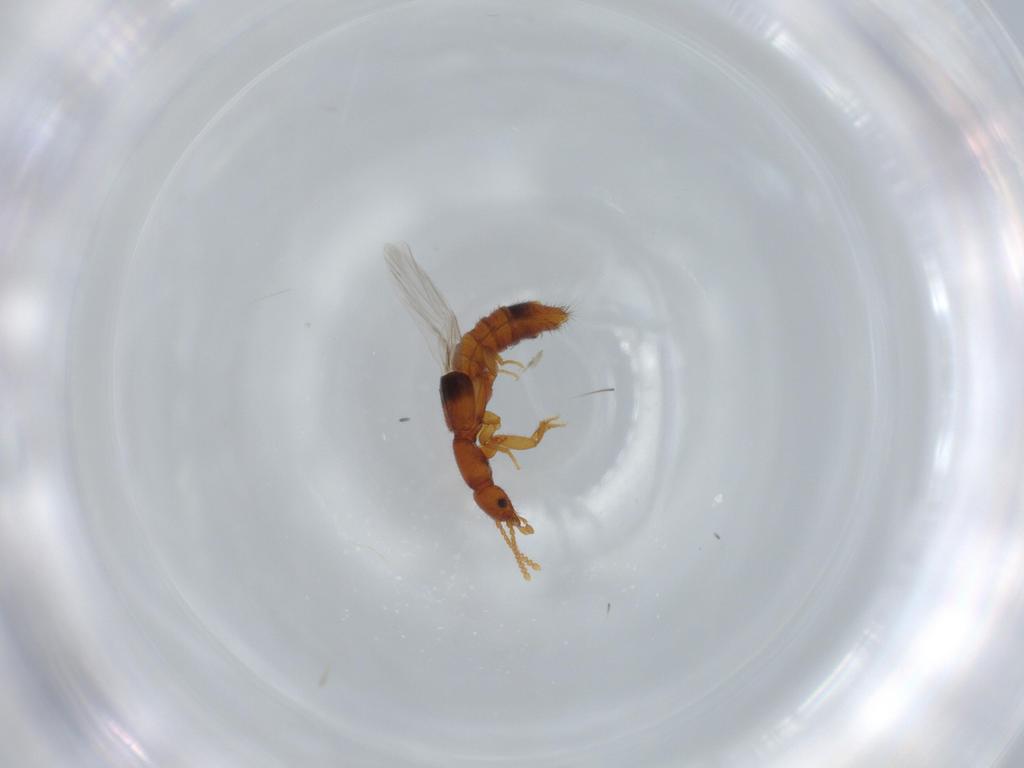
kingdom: Animalia
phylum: Arthropoda
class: Insecta
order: Coleoptera
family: Staphylinidae
